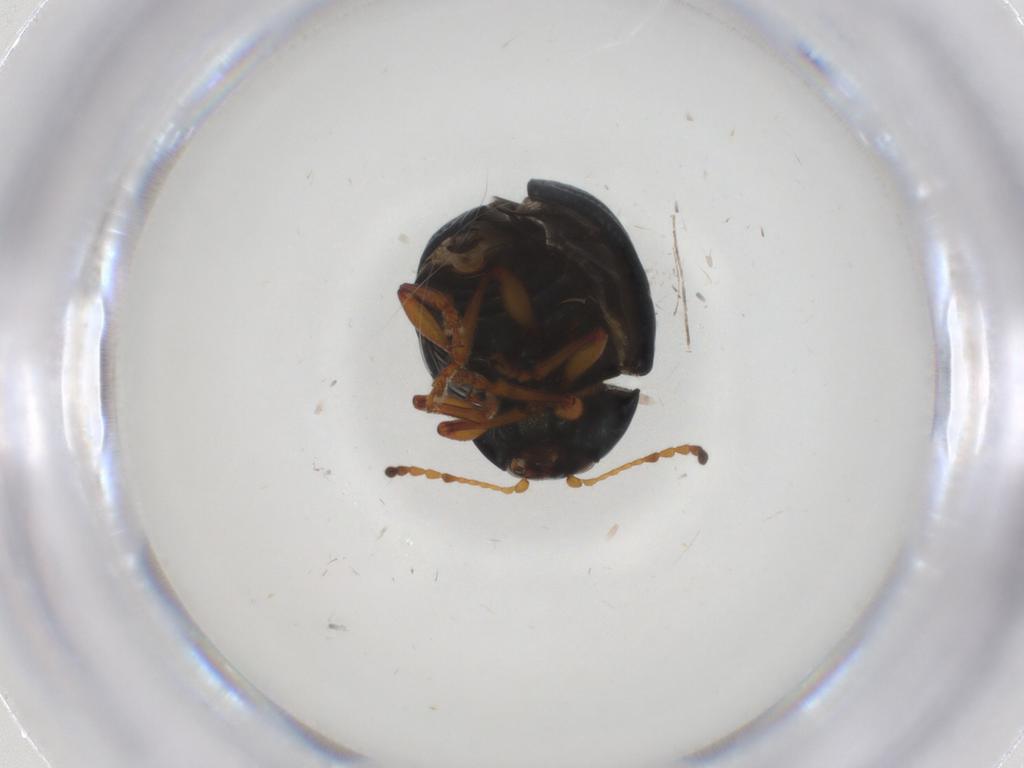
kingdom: Animalia
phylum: Arthropoda
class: Insecta
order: Coleoptera
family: Chrysomelidae
